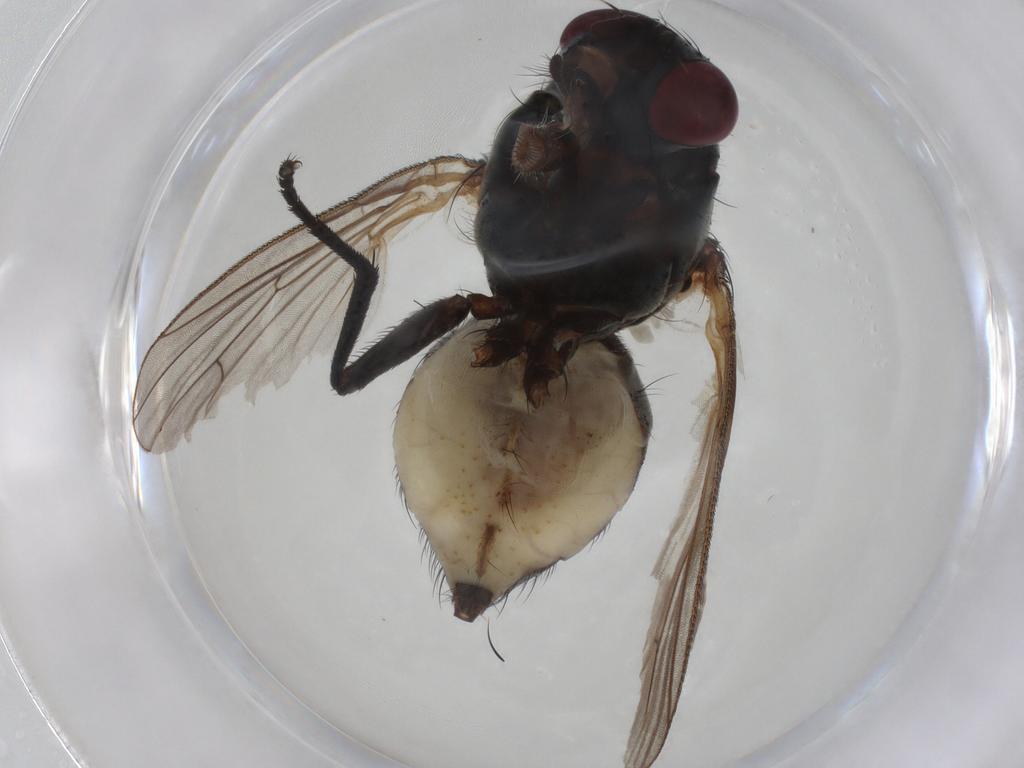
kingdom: Animalia
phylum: Arthropoda
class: Insecta
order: Diptera
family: Anthomyiidae
